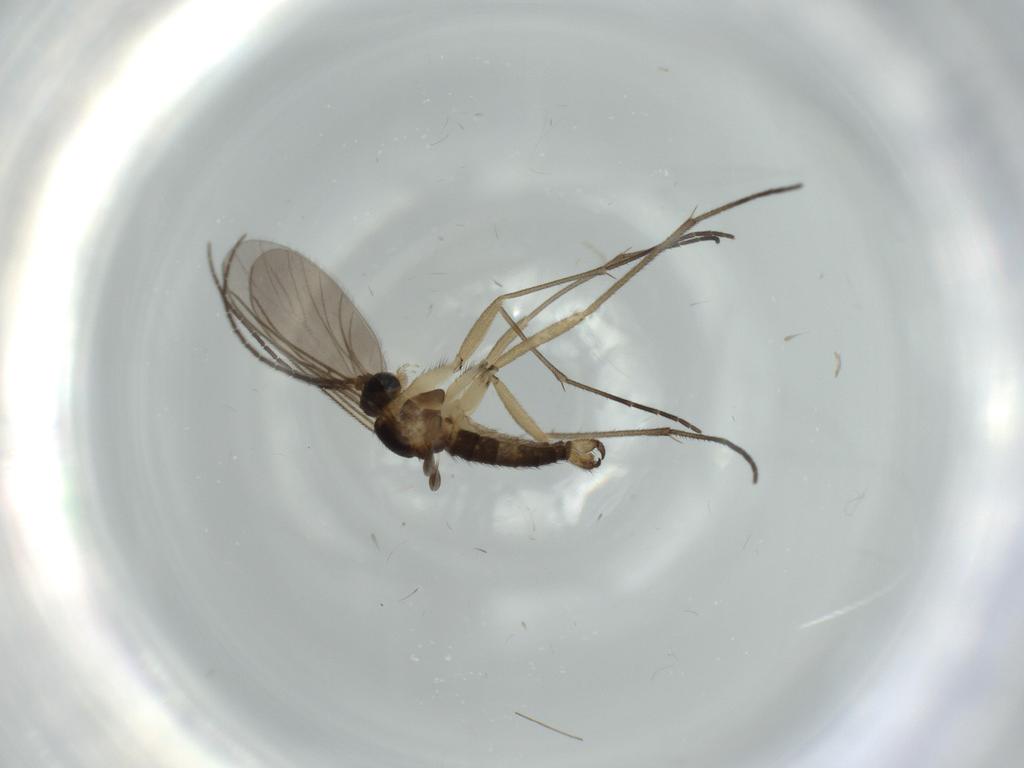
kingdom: Animalia
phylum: Arthropoda
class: Insecta
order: Diptera
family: Sciaridae
